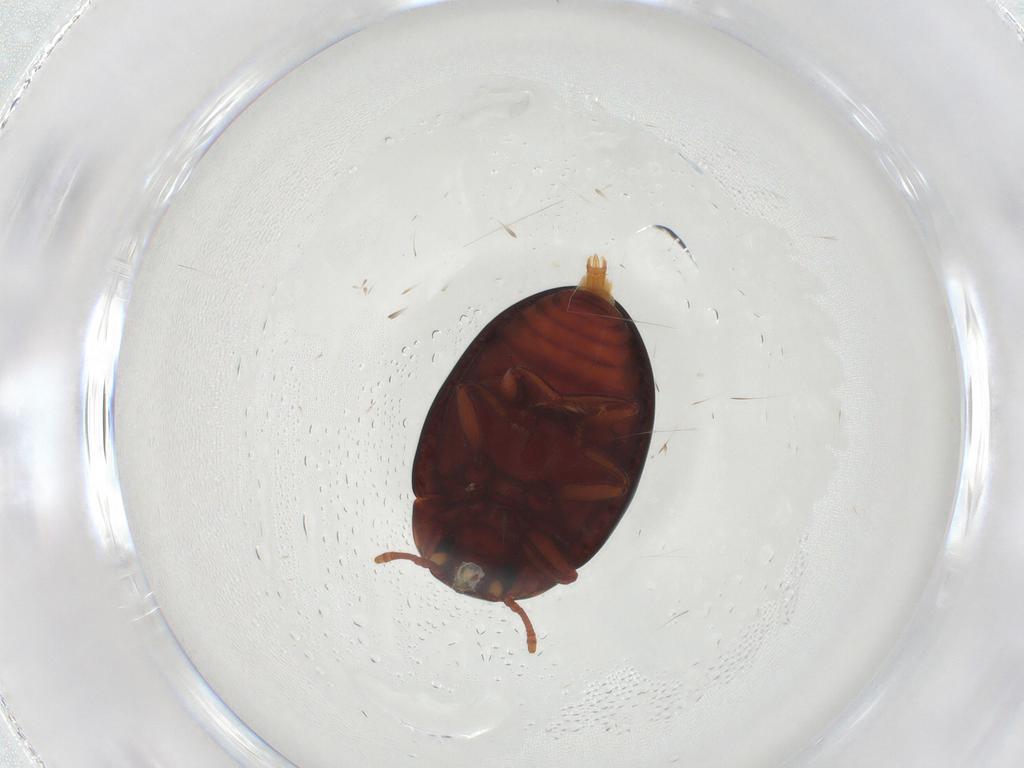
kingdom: Animalia
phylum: Arthropoda
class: Insecta
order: Coleoptera
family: Zopheridae
